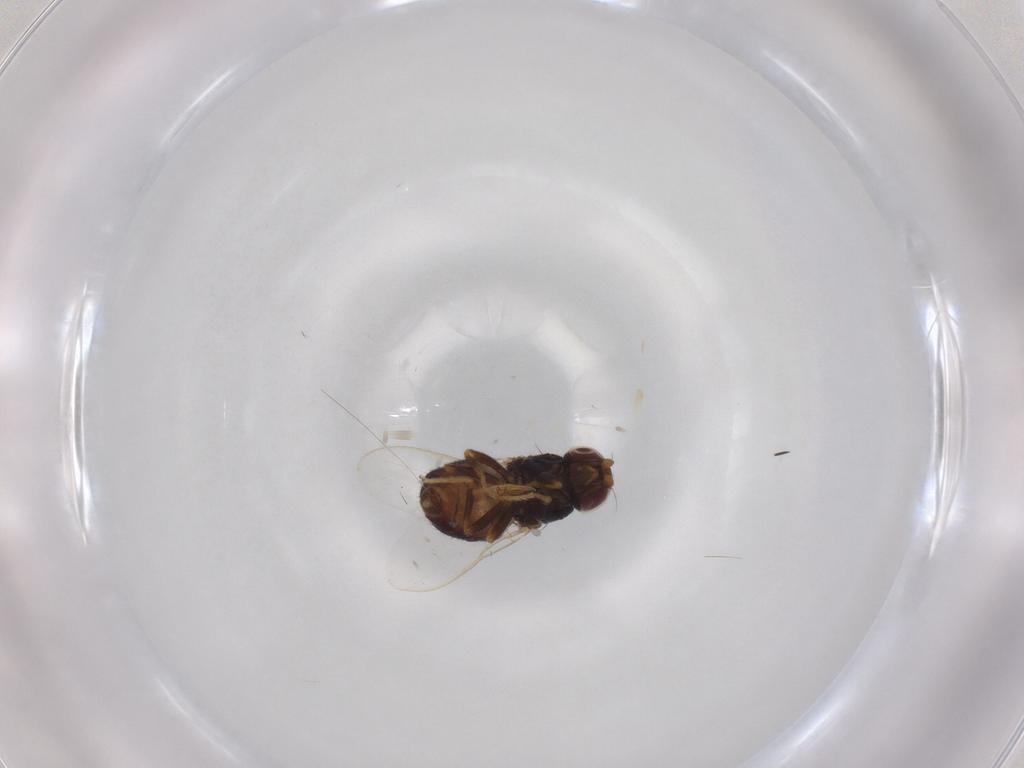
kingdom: Animalia
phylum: Arthropoda
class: Insecta
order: Diptera
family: Chloropidae
